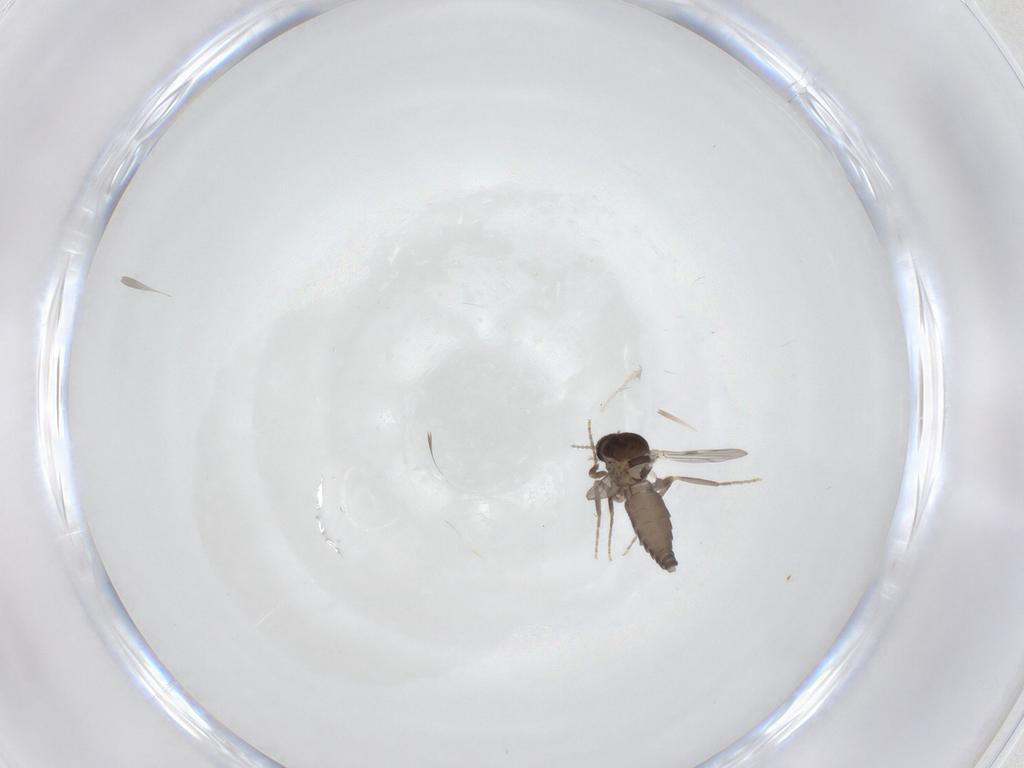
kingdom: Animalia
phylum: Arthropoda
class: Insecta
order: Diptera
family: Ceratopogonidae
